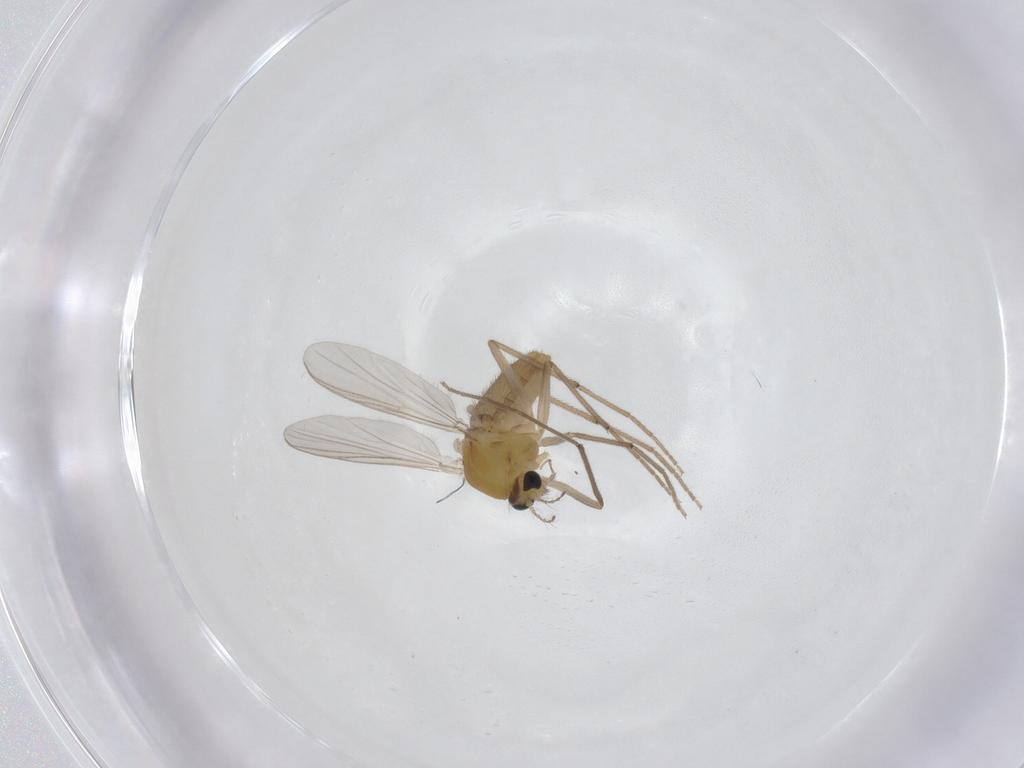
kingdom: Animalia
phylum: Arthropoda
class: Insecta
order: Diptera
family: Chironomidae
